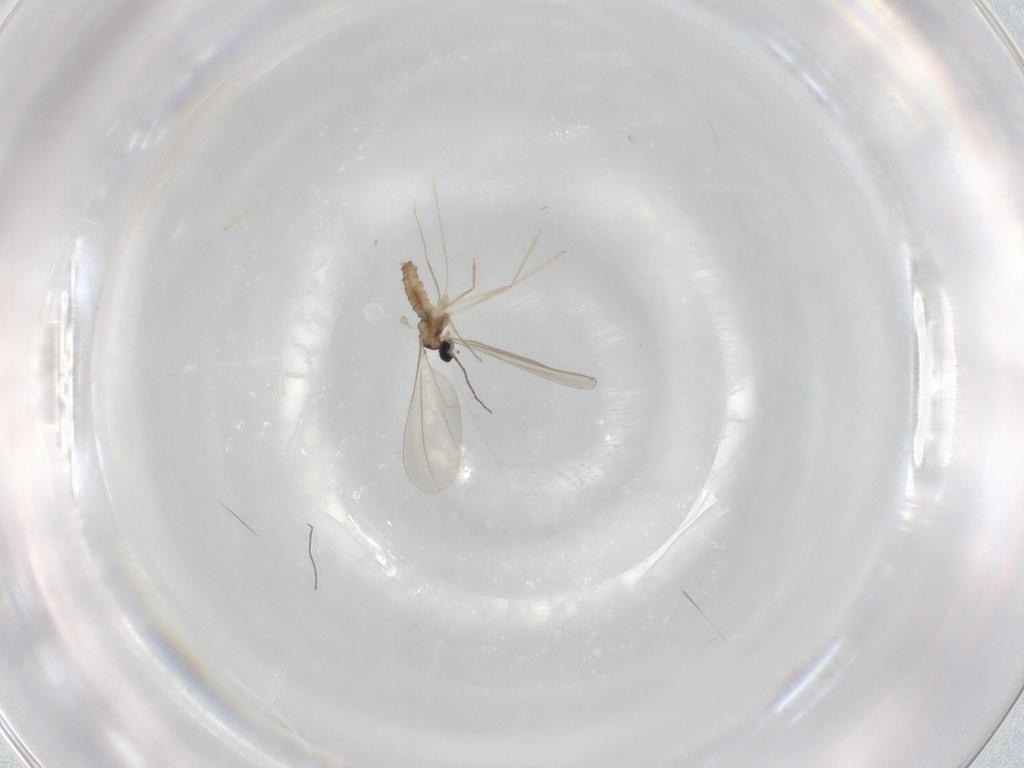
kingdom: Animalia
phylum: Arthropoda
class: Insecta
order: Diptera
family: Cecidomyiidae
